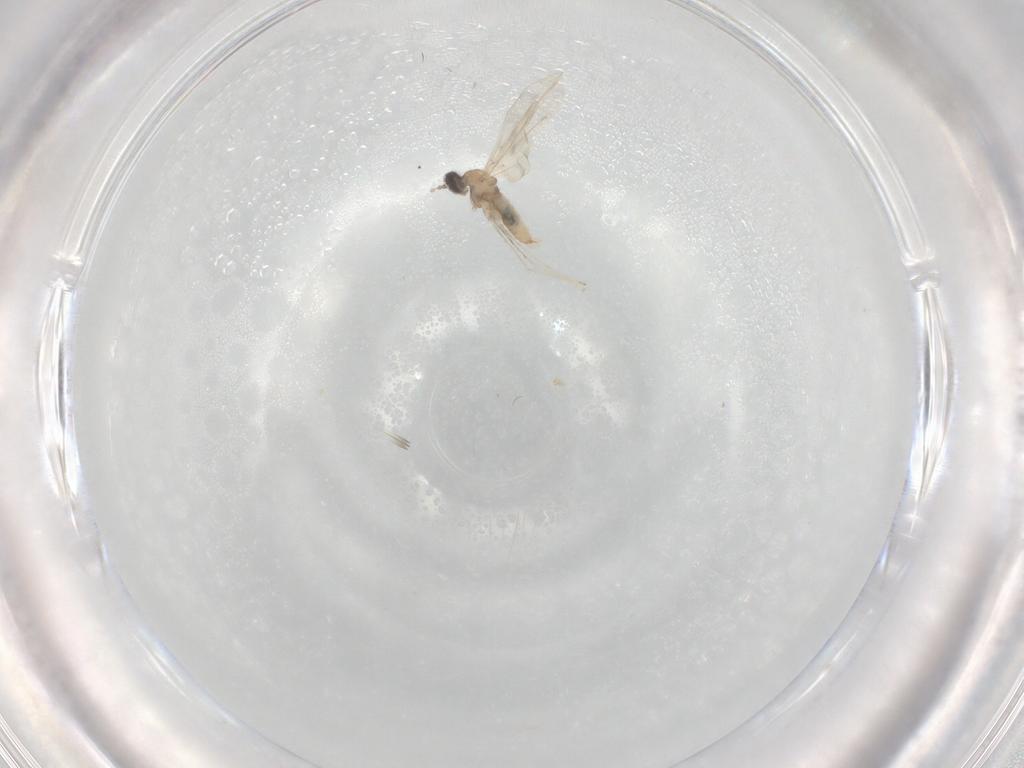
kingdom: Animalia
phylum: Arthropoda
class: Insecta
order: Diptera
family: Cecidomyiidae
